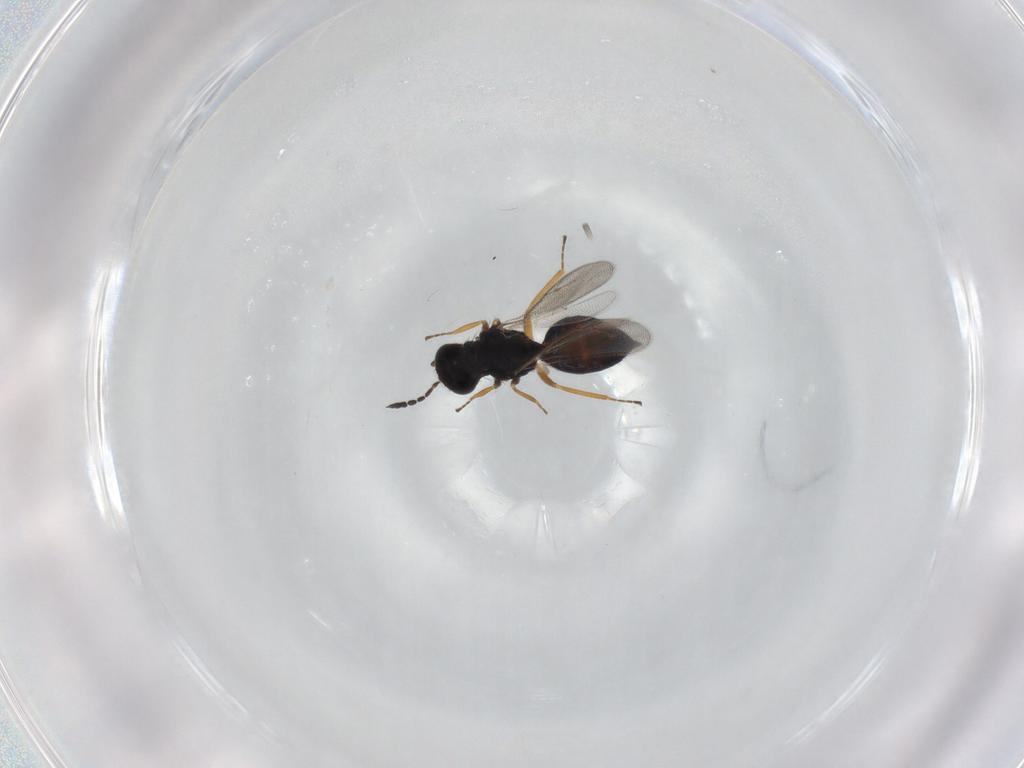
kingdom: Animalia
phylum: Arthropoda
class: Insecta
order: Hymenoptera
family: Eulophidae
